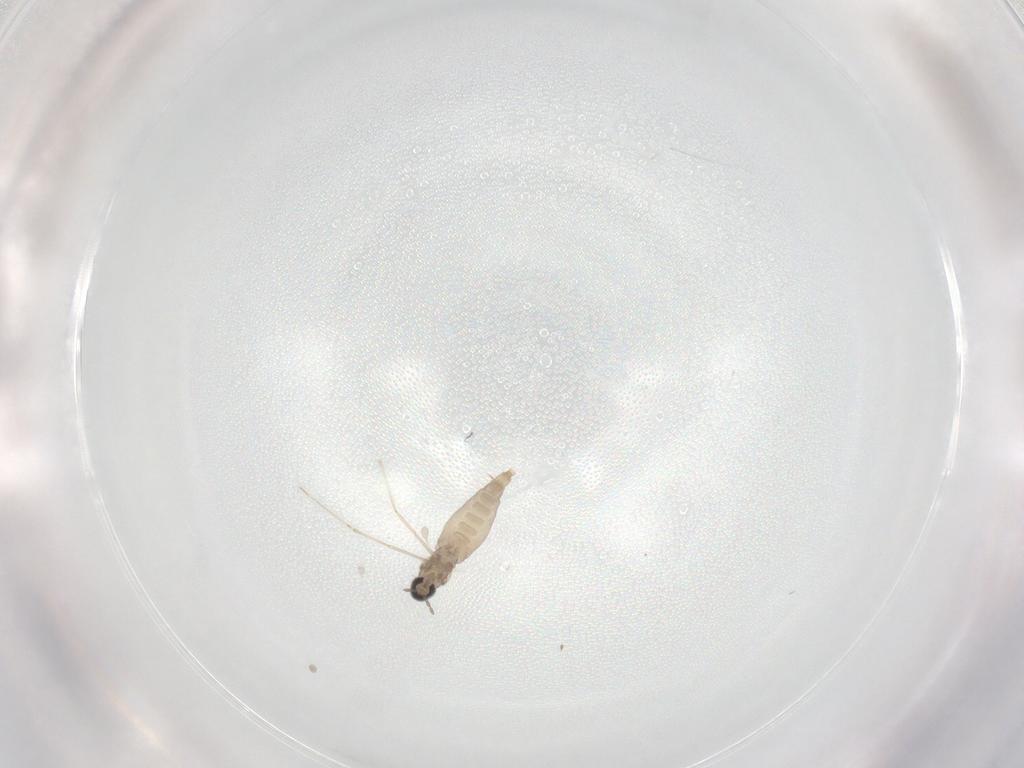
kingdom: Animalia
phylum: Arthropoda
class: Insecta
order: Diptera
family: Cecidomyiidae
